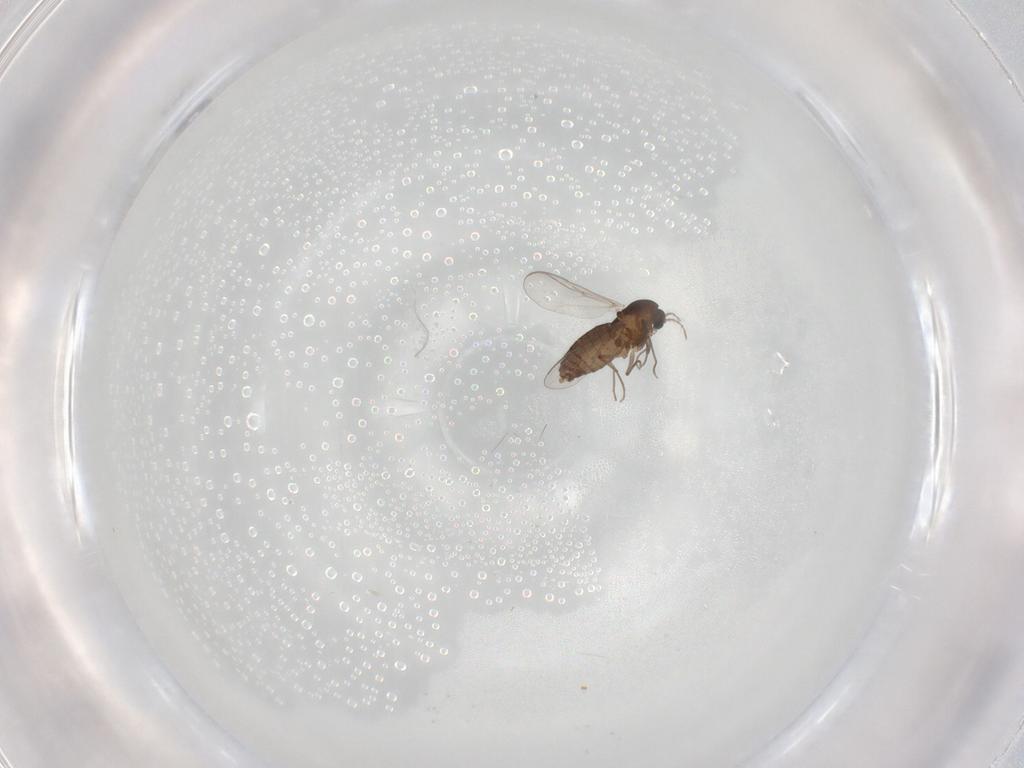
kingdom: Animalia
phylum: Arthropoda
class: Insecta
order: Diptera
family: Chironomidae
